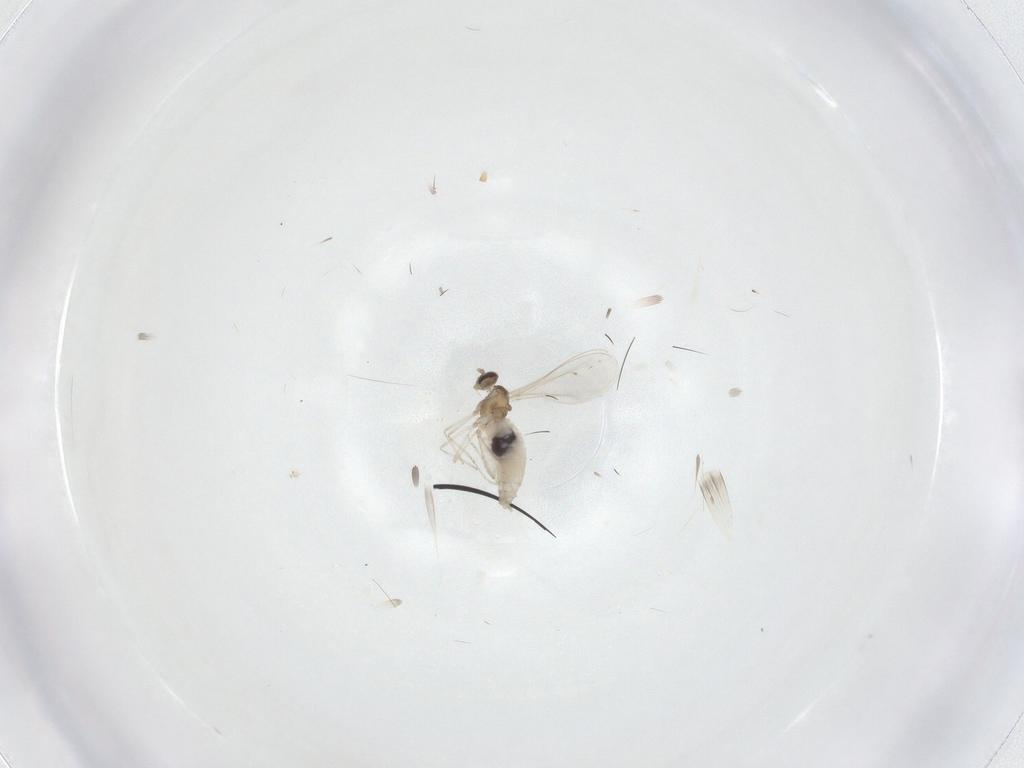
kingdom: Animalia
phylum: Arthropoda
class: Insecta
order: Diptera
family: Cecidomyiidae
